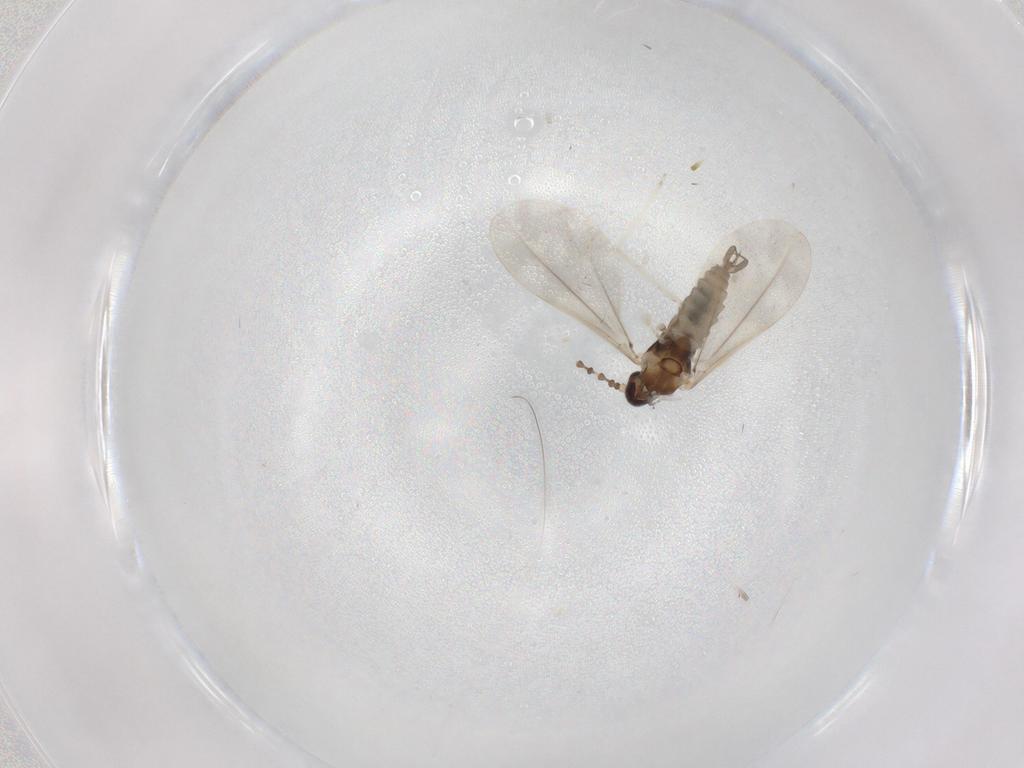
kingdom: Animalia
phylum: Arthropoda
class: Insecta
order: Diptera
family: Cecidomyiidae
